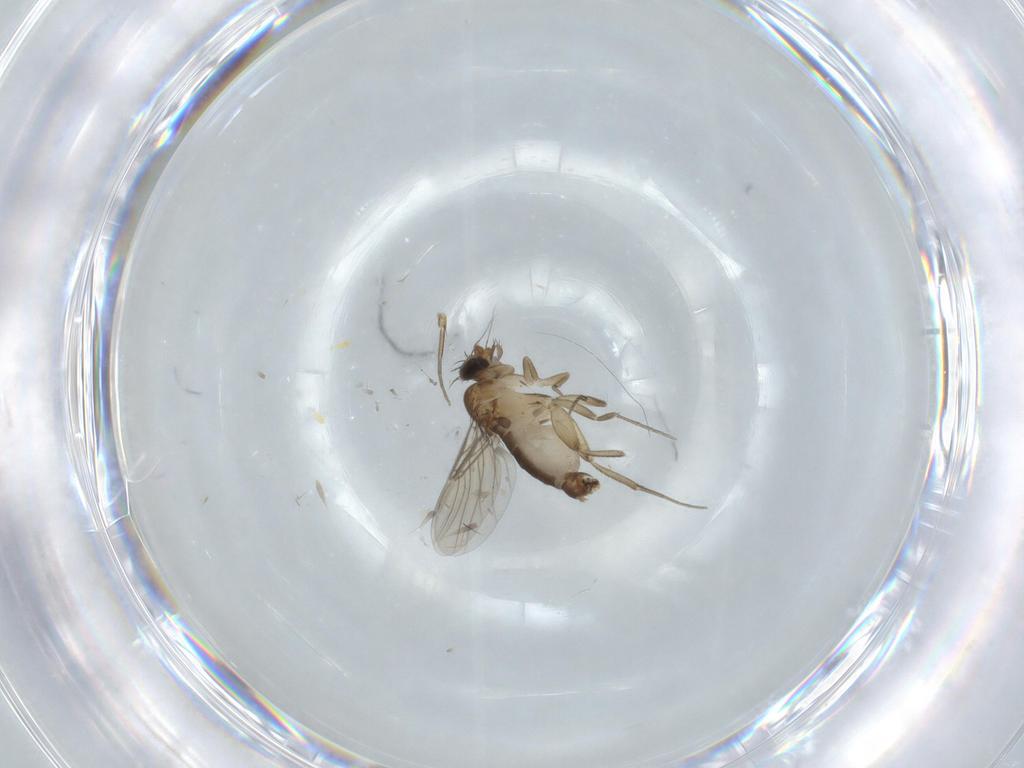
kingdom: Animalia
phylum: Arthropoda
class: Insecta
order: Diptera
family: Phoridae
